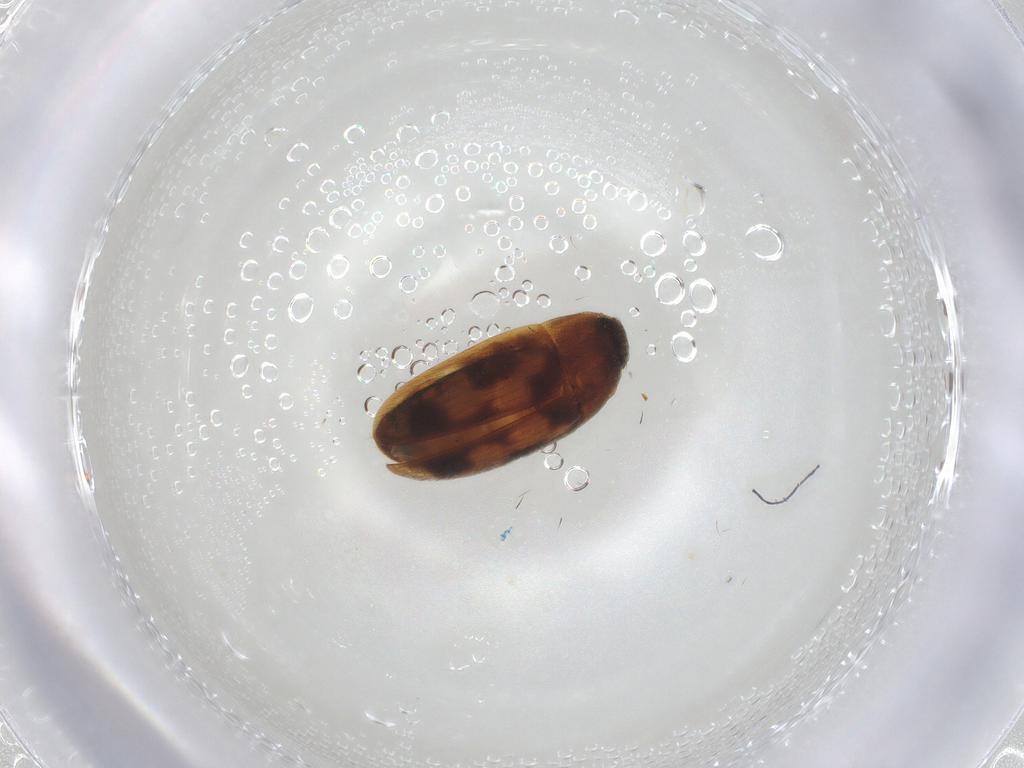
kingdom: Animalia
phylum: Arthropoda
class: Insecta
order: Coleoptera
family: Mycetophagidae
